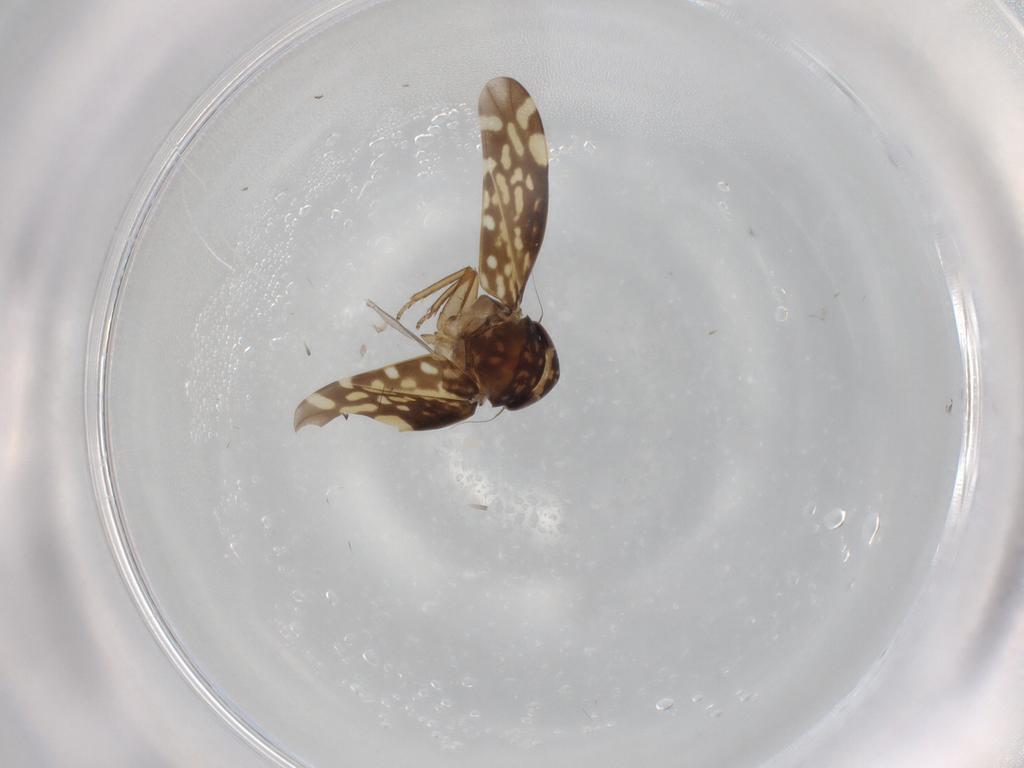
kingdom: Animalia
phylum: Arthropoda
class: Insecta
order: Hemiptera
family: Cicadellidae
